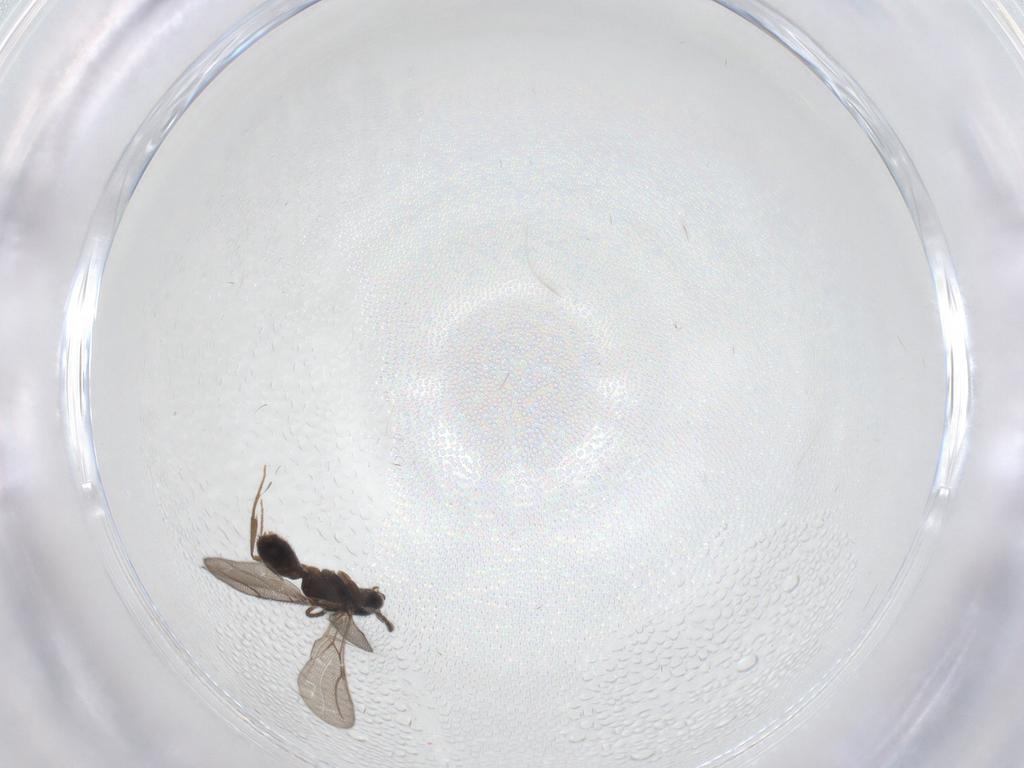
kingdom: Animalia
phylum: Arthropoda
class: Insecta
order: Hymenoptera
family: Bethylidae
